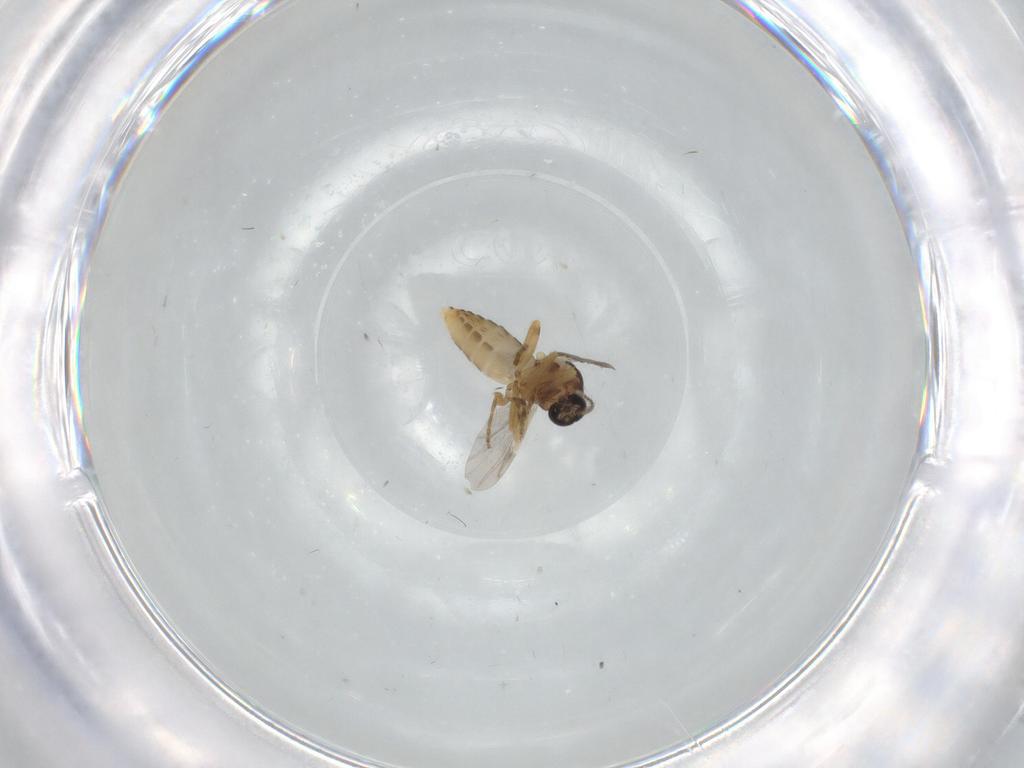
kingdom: Animalia
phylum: Arthropoda
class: Insecta
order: Diptera
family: Ceratopogonidae
